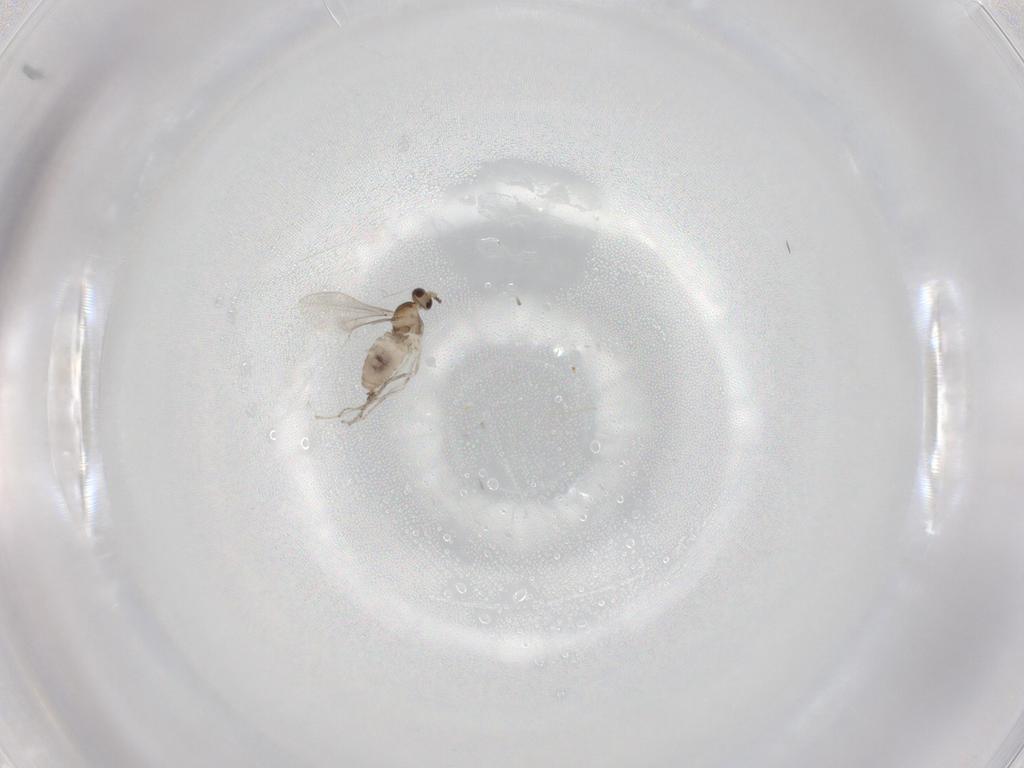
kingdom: Animalia
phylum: Arthropoda
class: Insecta
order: Diptera
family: Cecidomyiidae
